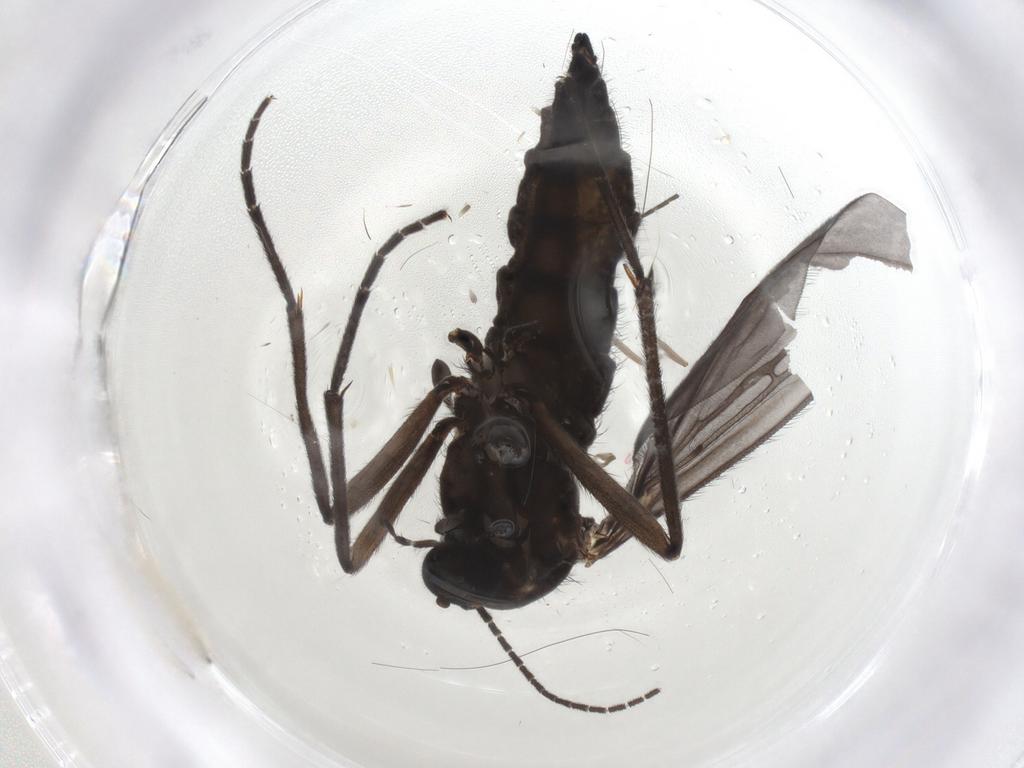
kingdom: Animalia
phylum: Arthropoda
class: Insecta
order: Diptera
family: Sciaridae
